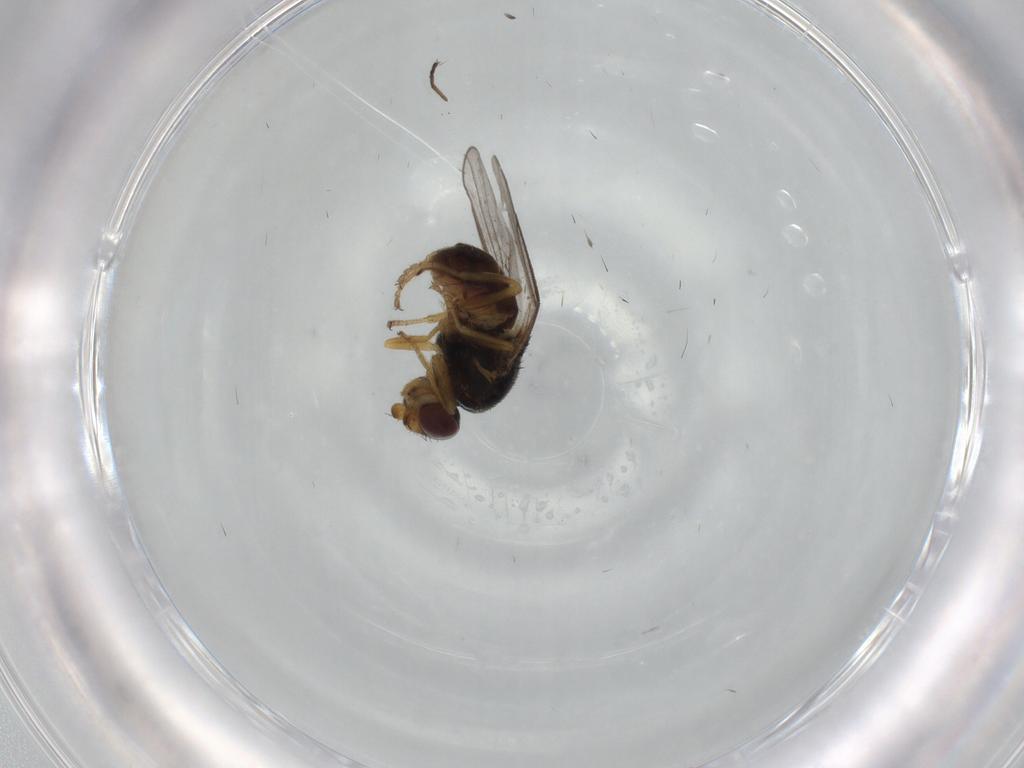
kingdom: Animalia
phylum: Arthropoda
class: Insecta
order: Diptera
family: Chloropidae
